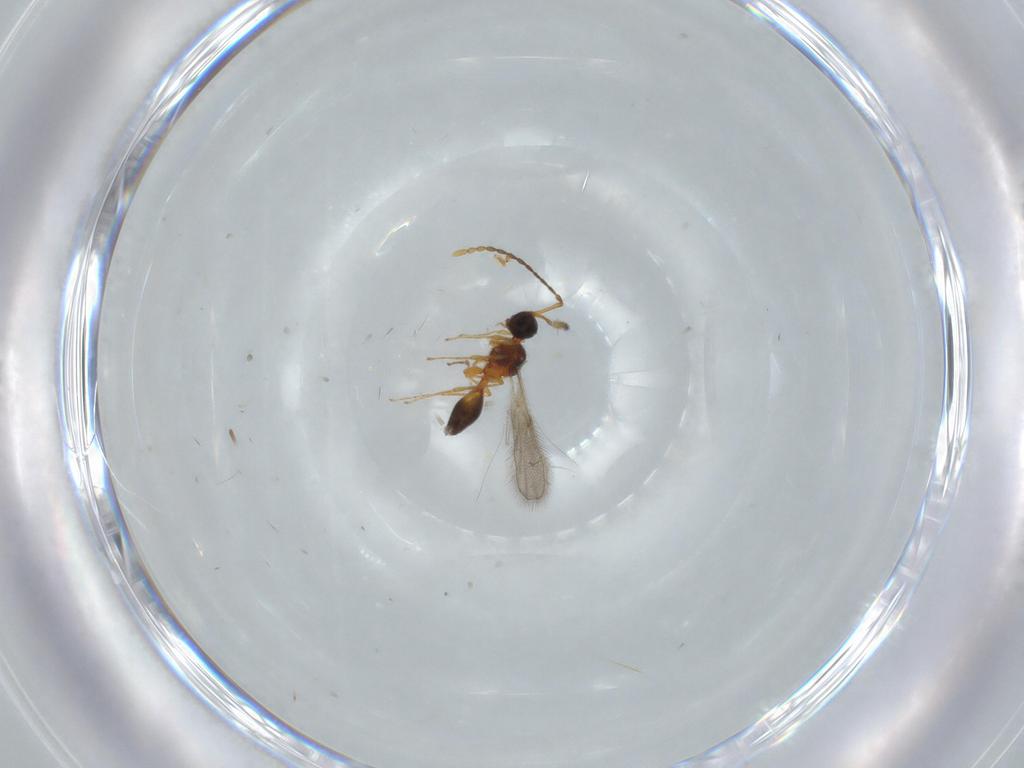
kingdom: Animalia
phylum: Arthropoda
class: Insecta
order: Hymenoptera
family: Diapriidae
